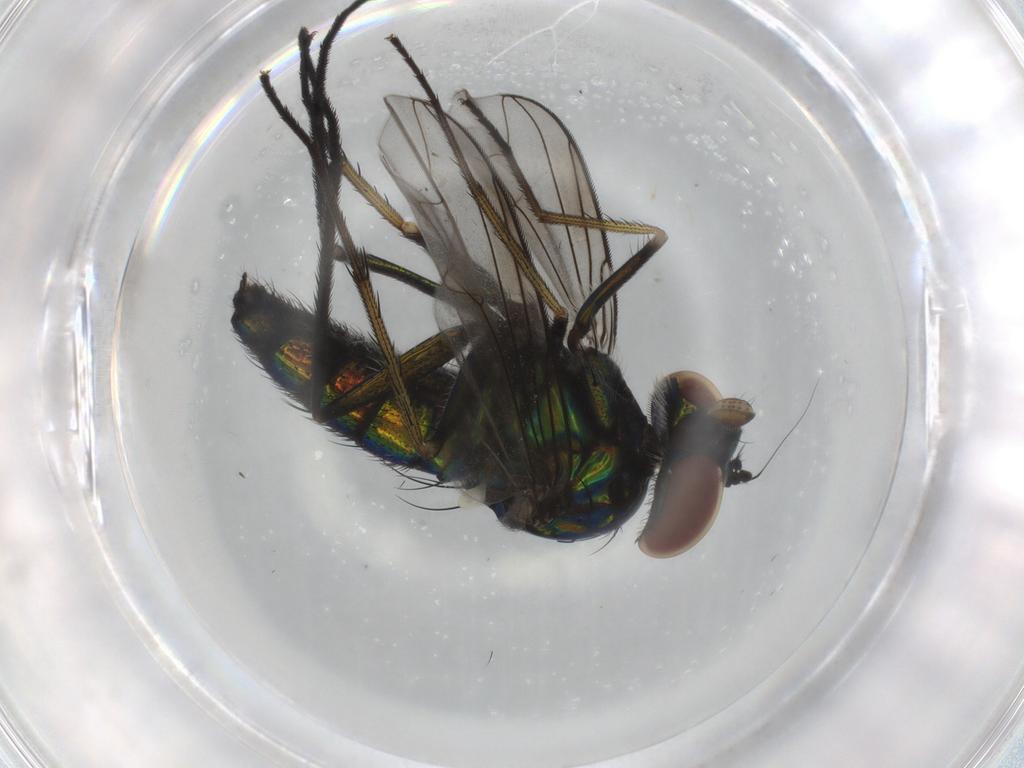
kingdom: Animalia
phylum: Arthropoda
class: Insecta
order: Diptera
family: Cecidomyiidae
